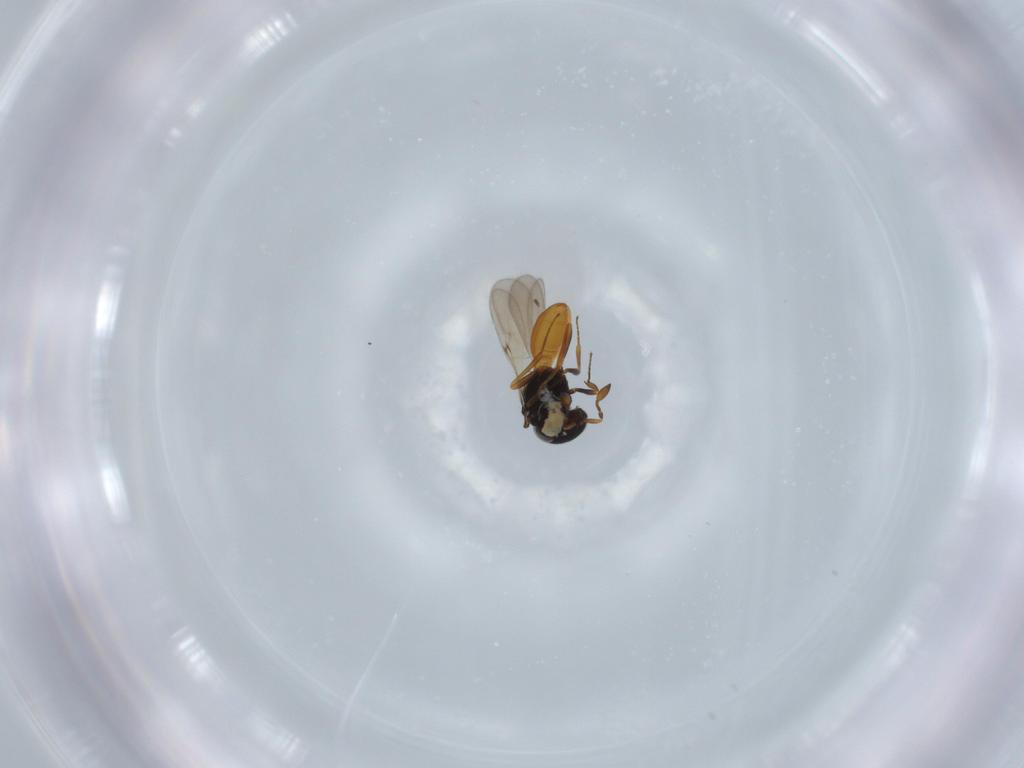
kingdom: Animalia
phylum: Arthropoda
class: Insecta
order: Hymenoptera
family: Scelionidae
